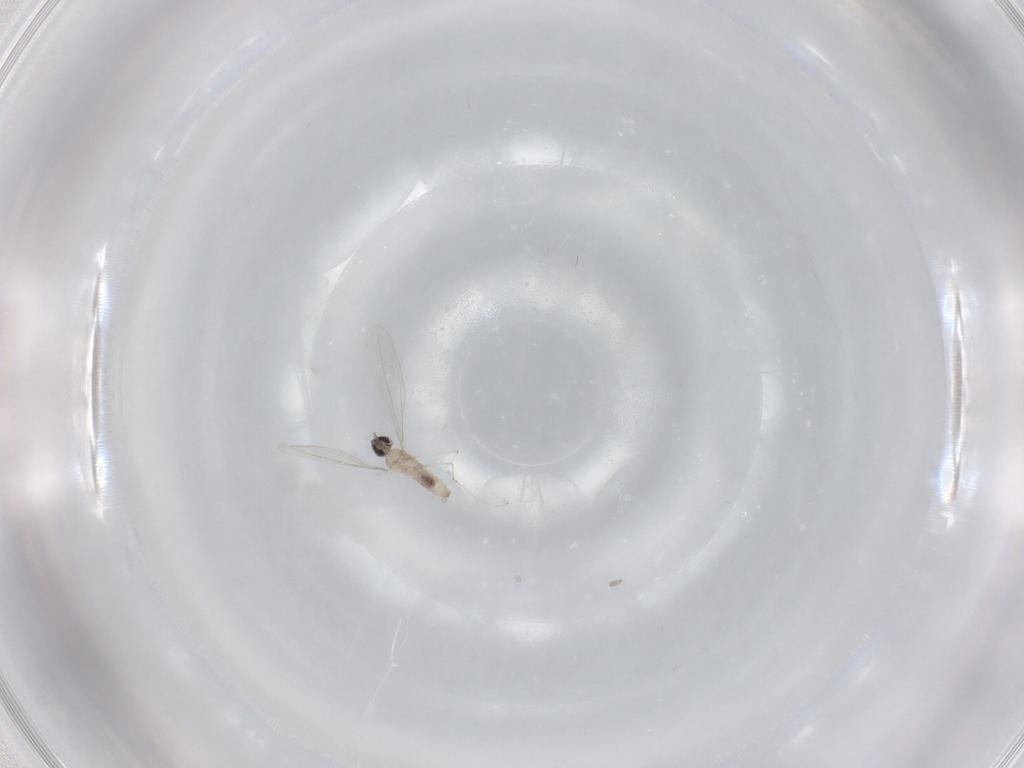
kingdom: Animalia
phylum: Arthropoda
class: Insecta
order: Diptera
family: Cecidomyiidae
